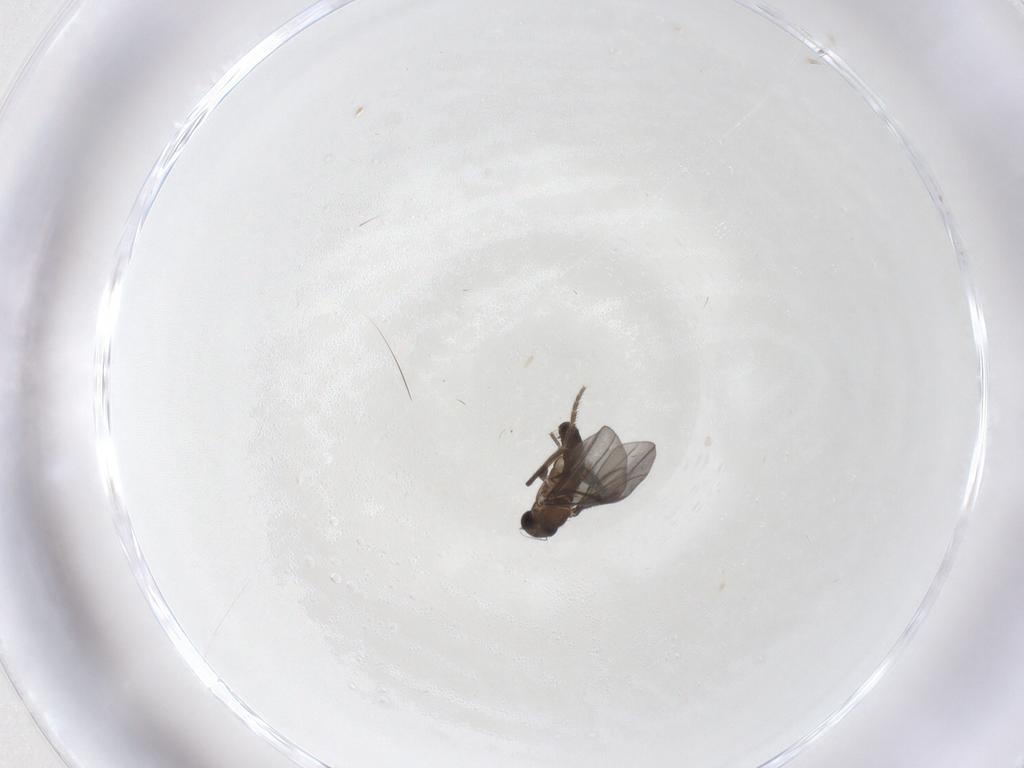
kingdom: Animalia
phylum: Arthropoda
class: Insecta
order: Diptera
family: Phoridae
